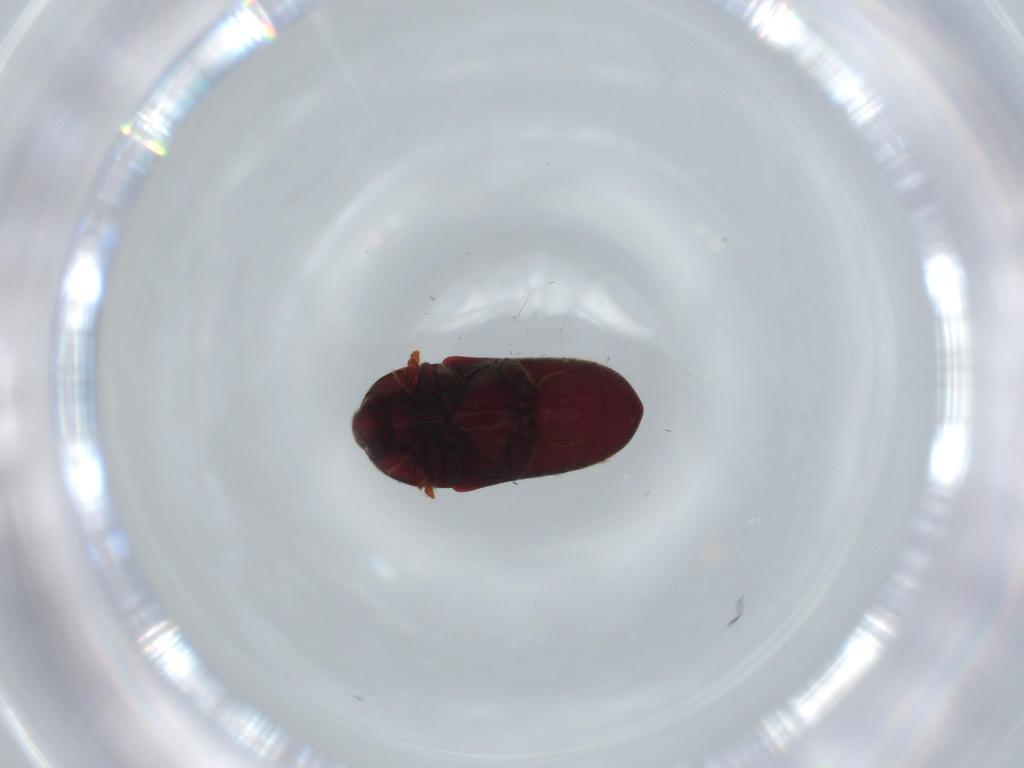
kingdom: Animalia
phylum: Arthropoda
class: Insecta
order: Coleoptera
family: Throscidae
